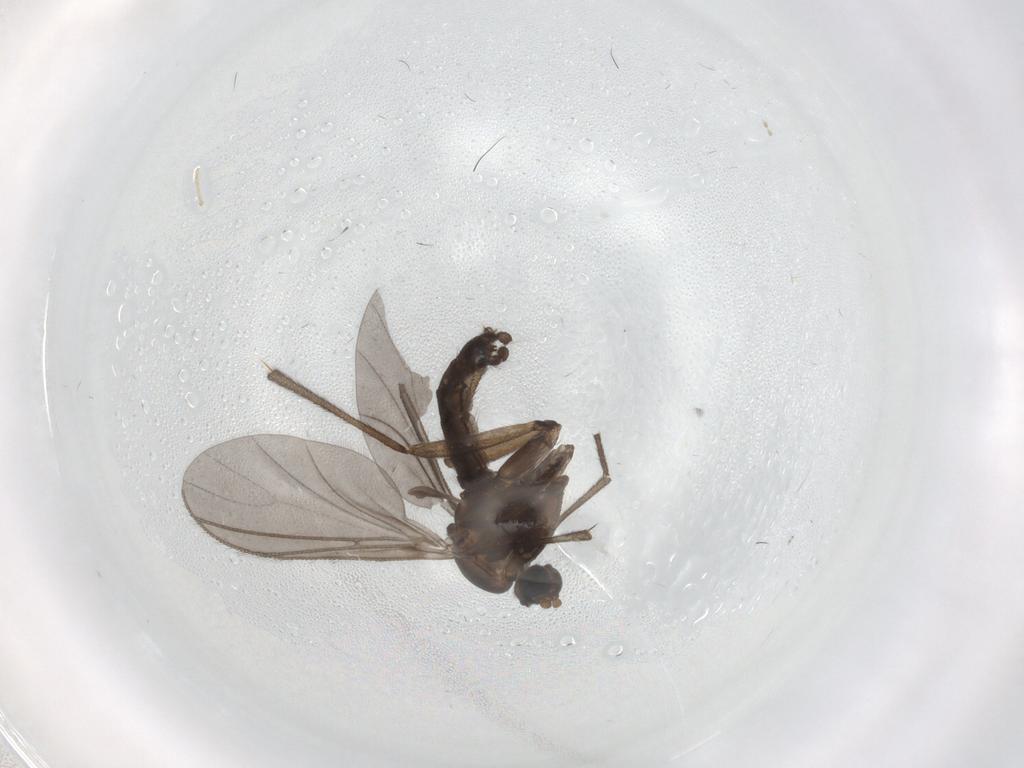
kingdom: Animalia
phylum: Arthropoda
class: Insecta
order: Diptera
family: Sciaridae
